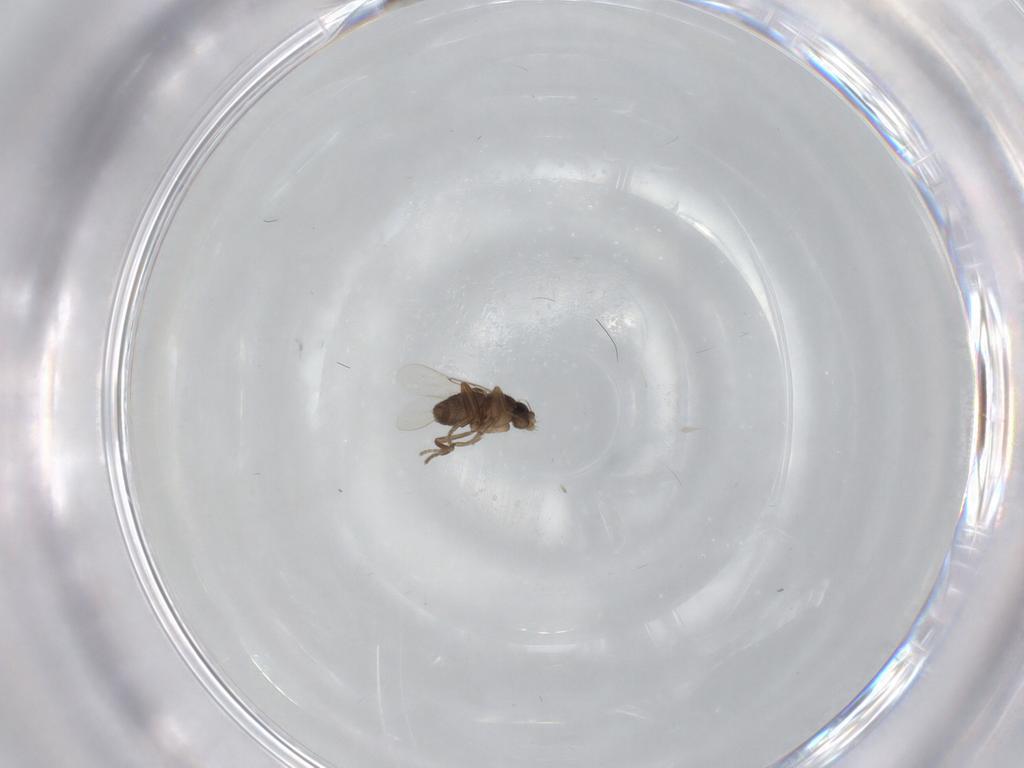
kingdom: Animalia
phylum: Arthropoda
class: Insecta
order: Diptera
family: Phoridae
